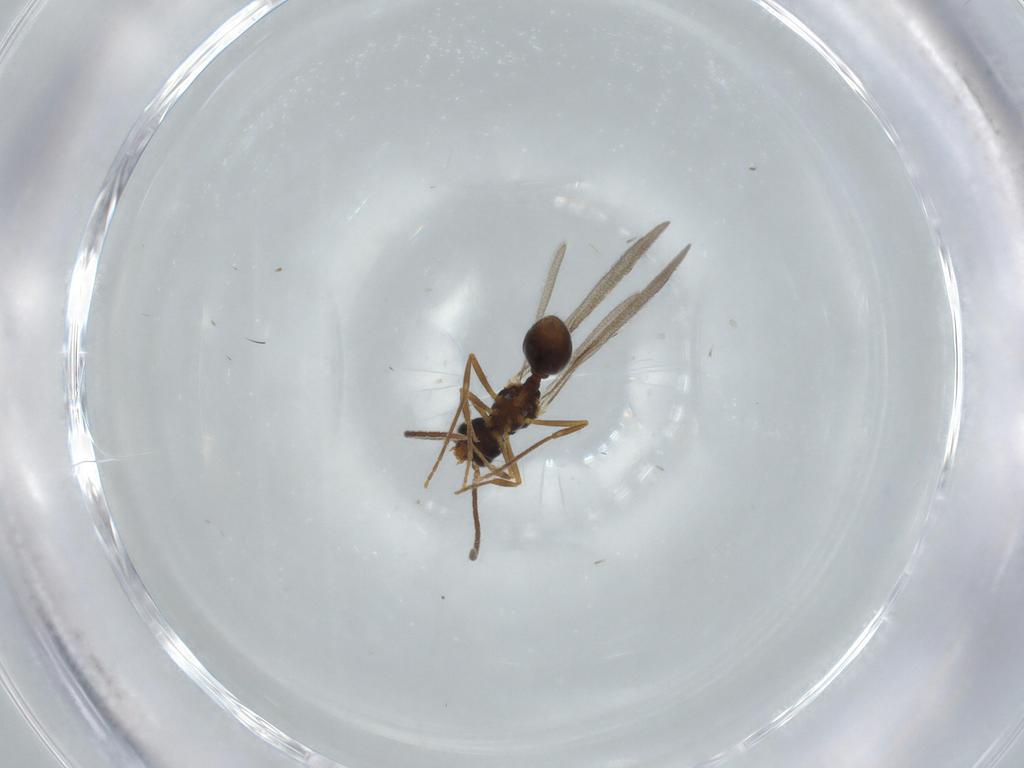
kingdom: Animalia
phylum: Arthropoda
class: Insecta
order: Hymenoptera
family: Formicidae
